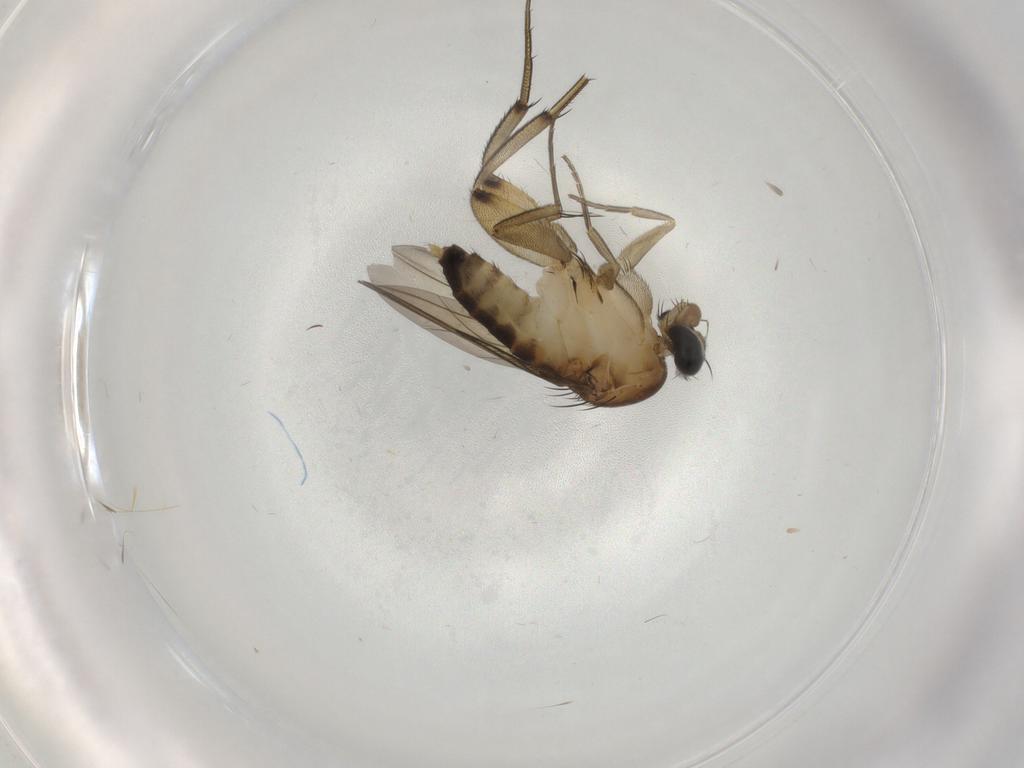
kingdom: Animalia
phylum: Arthropoda
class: Insecta
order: Diptera
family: Phoridae
